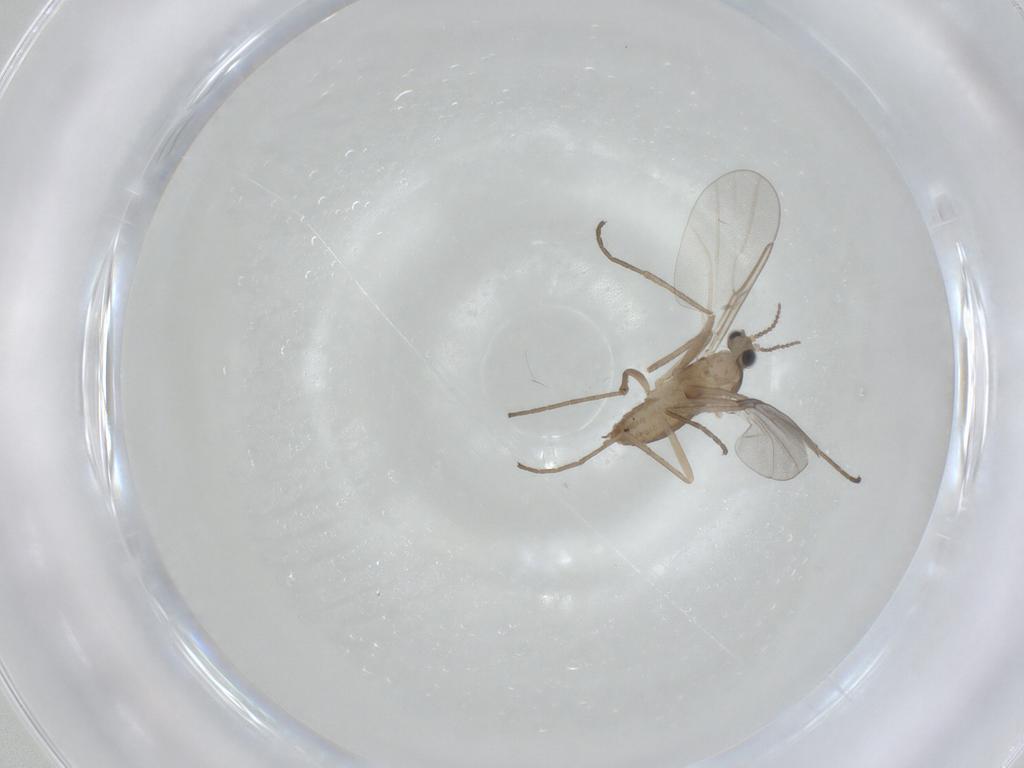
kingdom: Animalia
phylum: Arthropoda
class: Insecta
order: Diptera
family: Cecidomyiidae
